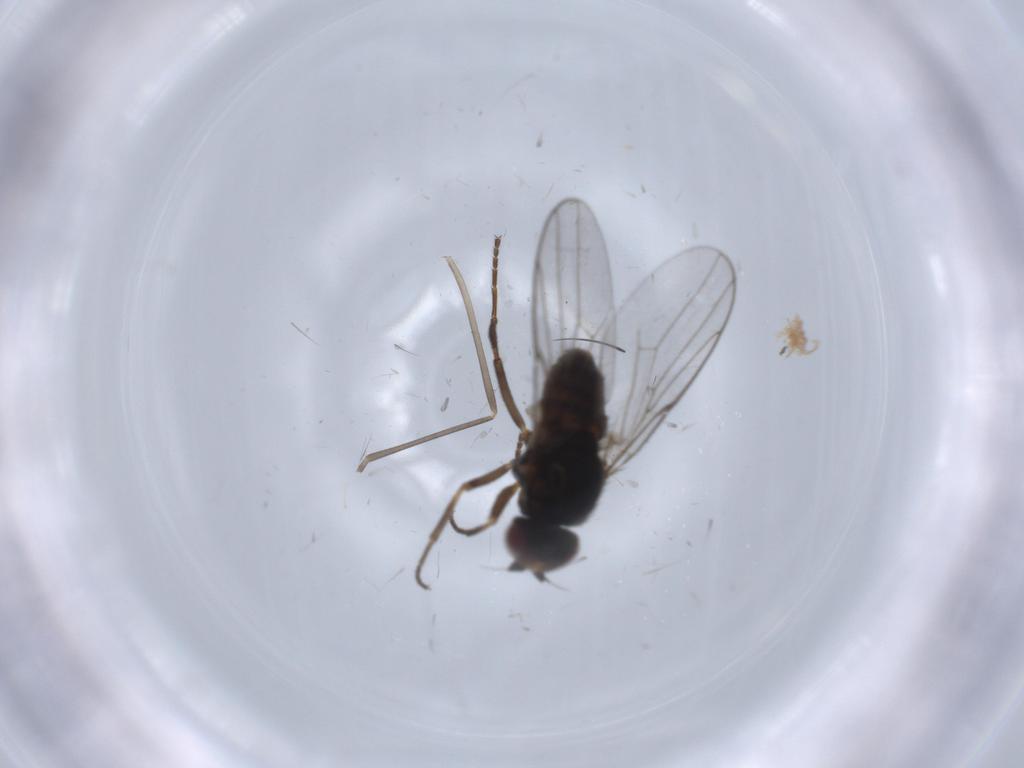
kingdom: Animalia
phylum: Arthropoda
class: Insecta
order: Diptera
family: Chloropidae
